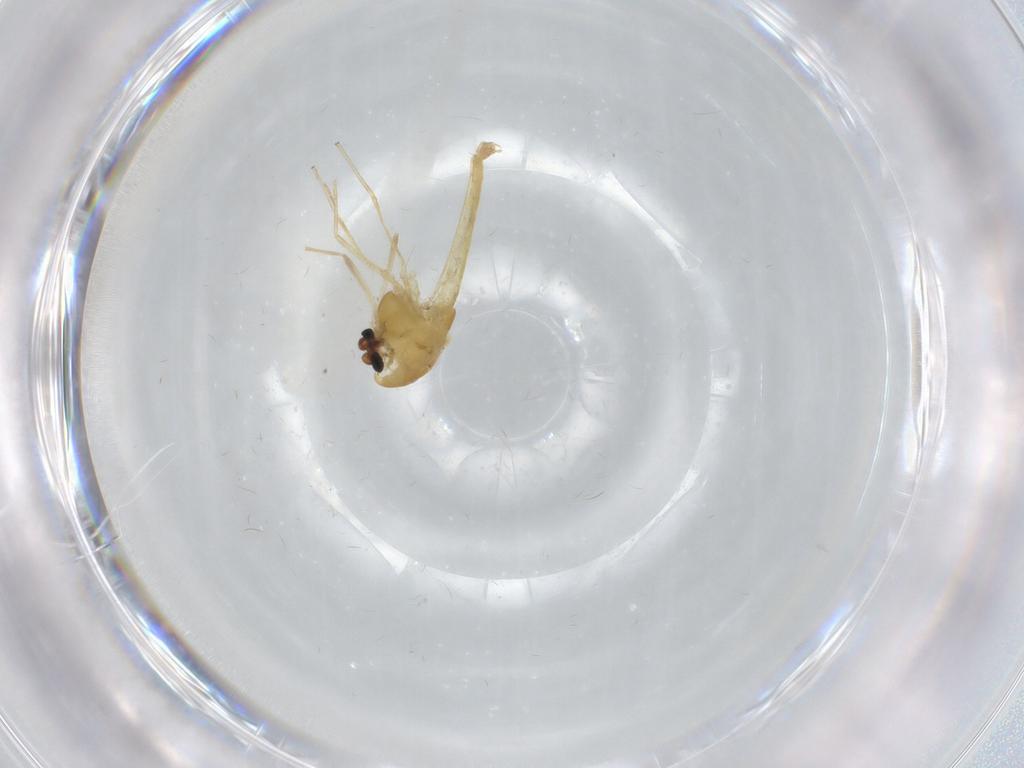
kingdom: Animalia
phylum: Arthropoda
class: Insecta
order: Diptera
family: Chironomidae
